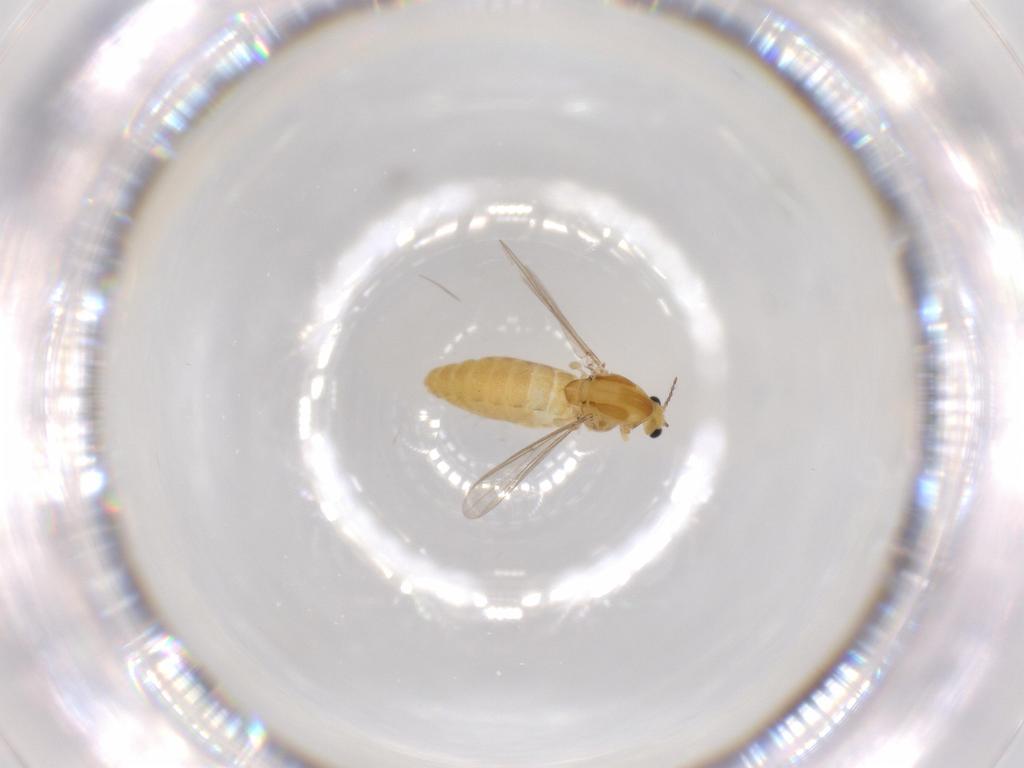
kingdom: Animalia
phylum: Arthropoda
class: Insecta
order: Diptera
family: Chironomidae
